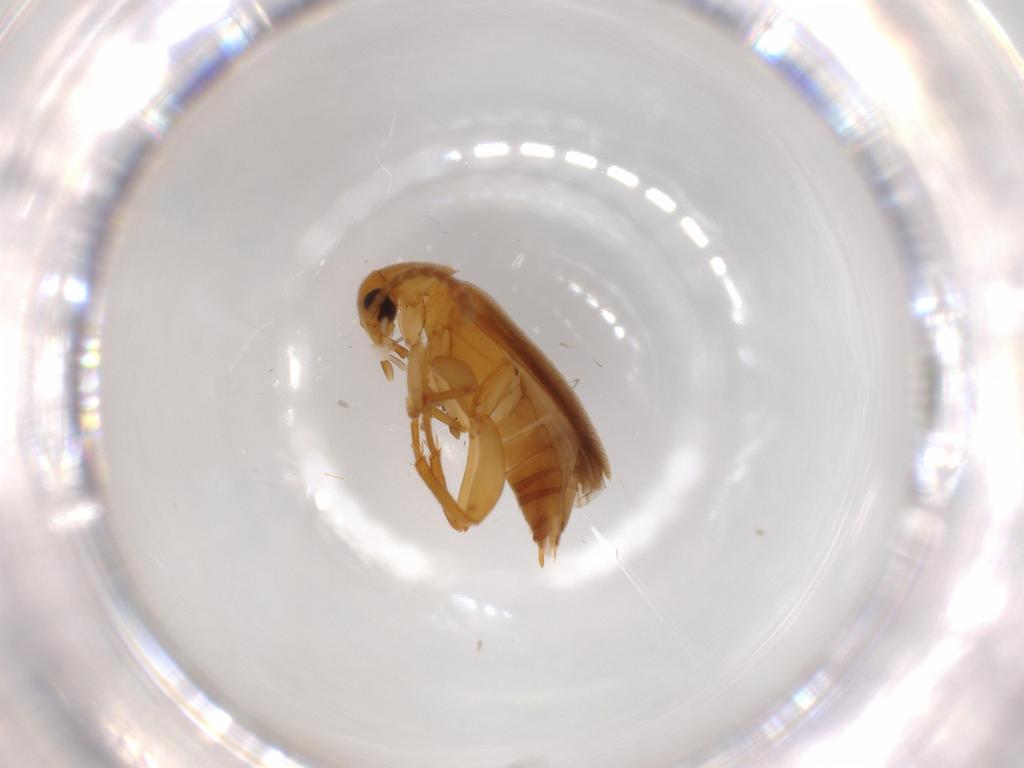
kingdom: Animalia
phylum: Arthropoda
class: Insecta
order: Coleoptera
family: Scraptiidae
